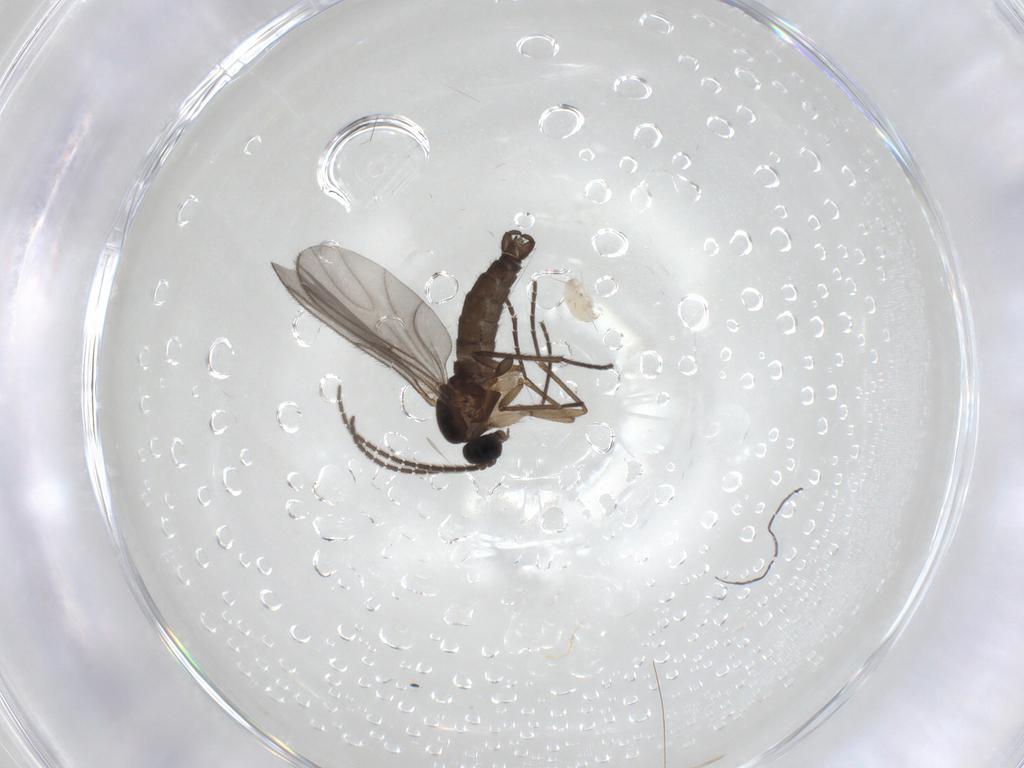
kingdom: Animalia
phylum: Arthropoda
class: Insecta
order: Diptera
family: Sciaridae
